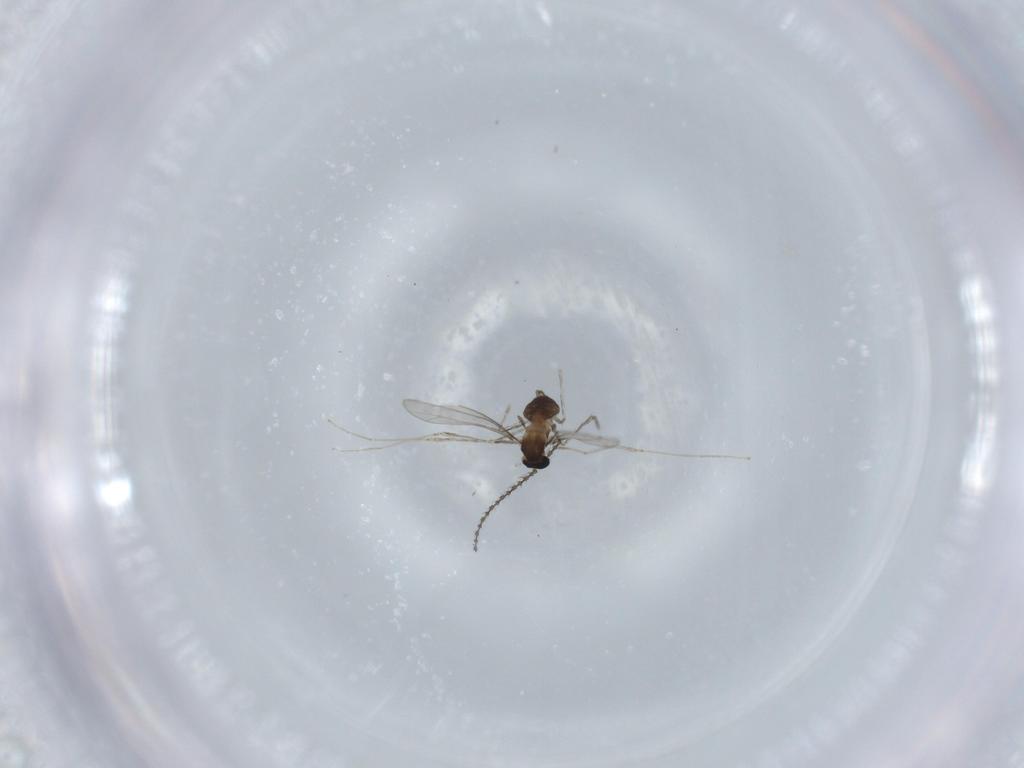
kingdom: Animalia
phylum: Arthropoda
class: Insecta
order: Diptera
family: Cecidomyiidae
